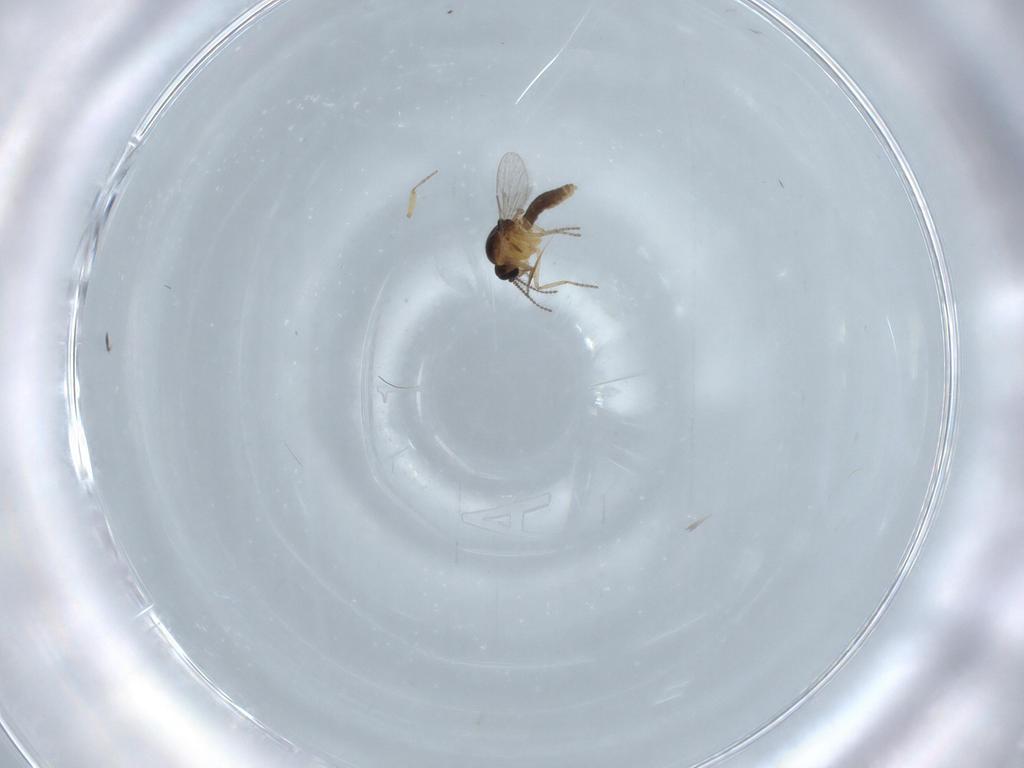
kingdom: Animalia
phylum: Arthropoda
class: Insecta
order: Diptera
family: Ceratopogonidae
